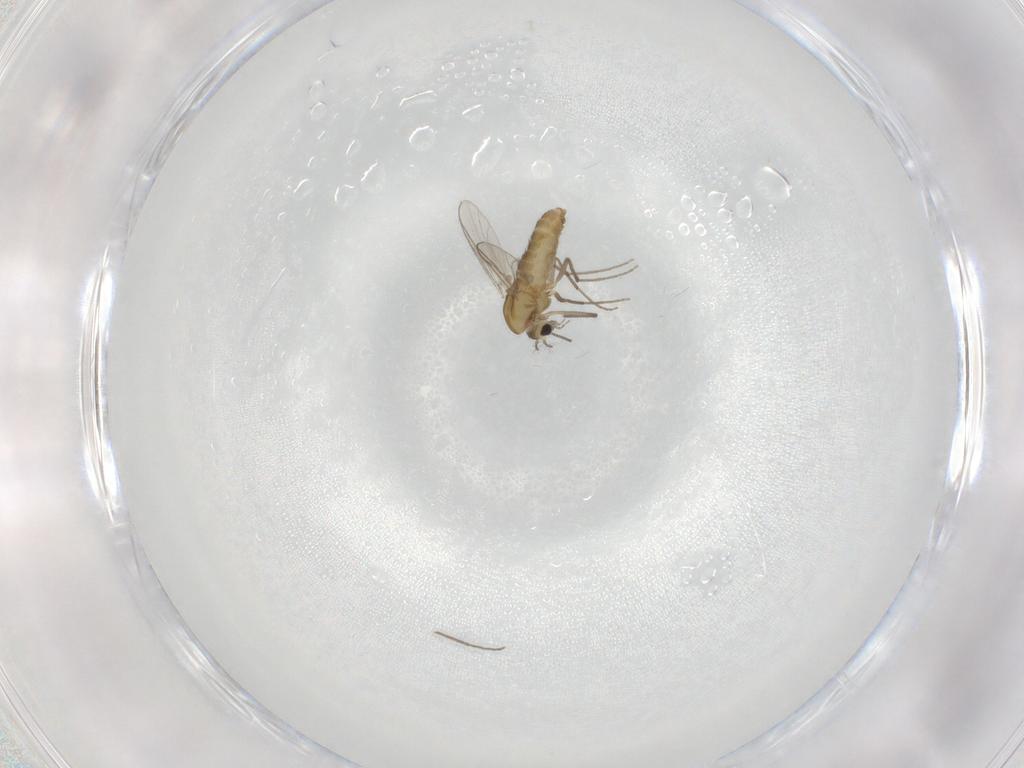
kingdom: Animalia
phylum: Arthropoda
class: Insecta
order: Diptera
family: Chironomidae
